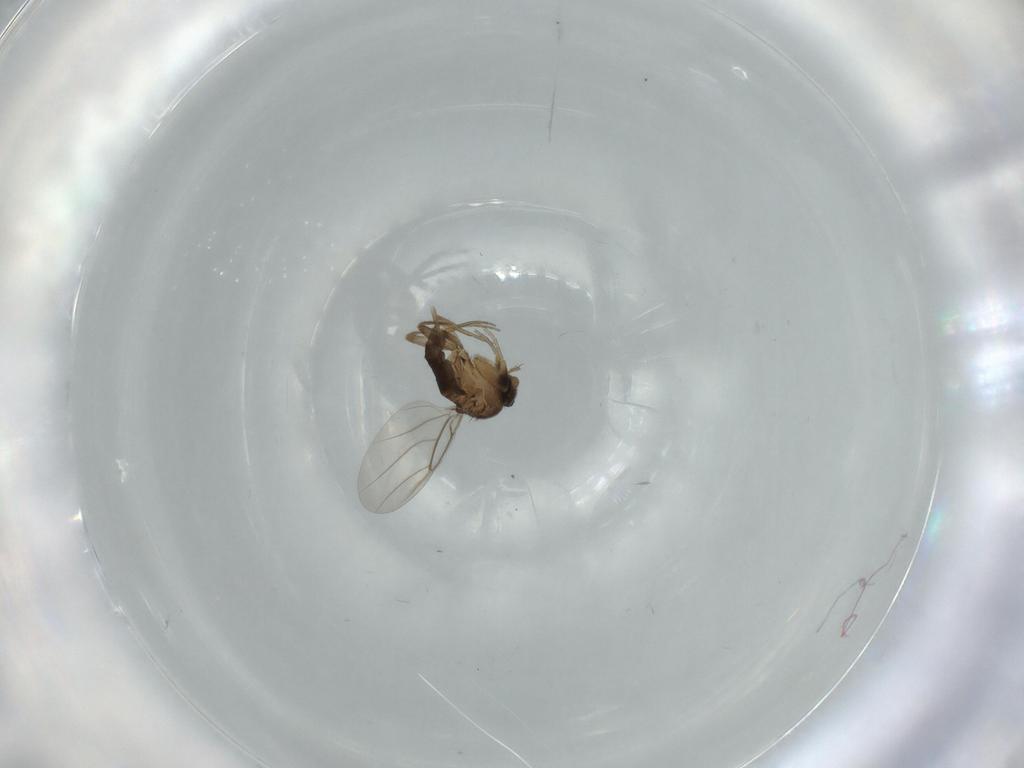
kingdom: Animalia
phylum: Arthropoda
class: Insecta
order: Diptera
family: Phoridae
